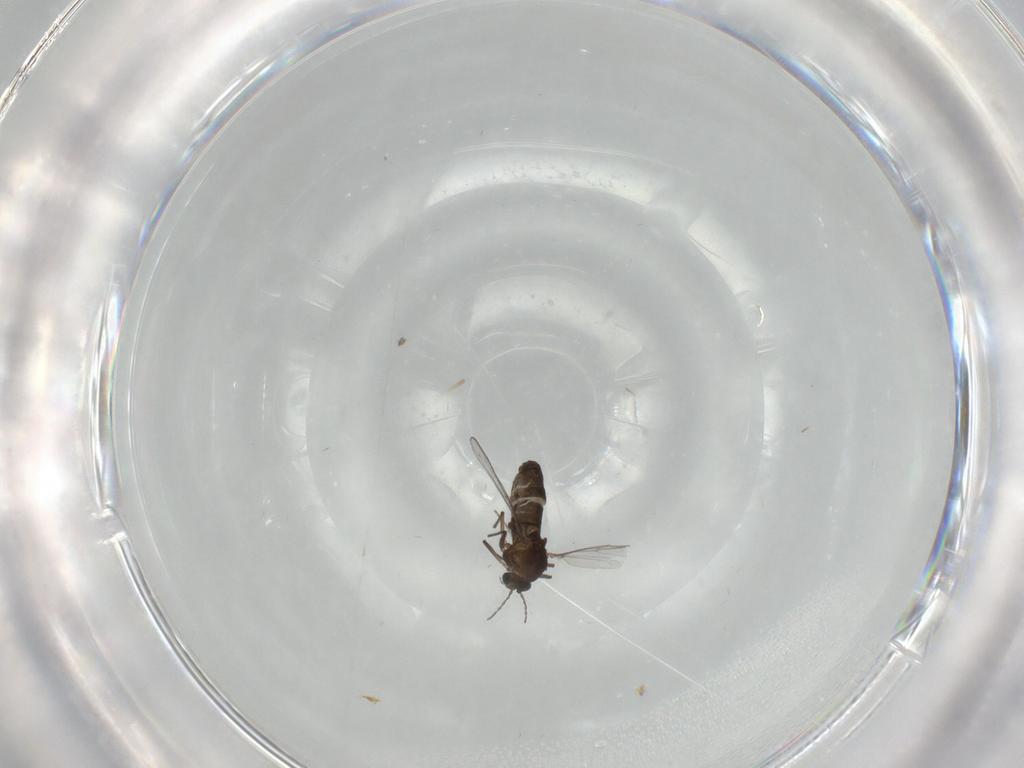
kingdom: Animalia
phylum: Arthropoda
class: Insecta
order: Diptera
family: Chironomidae
